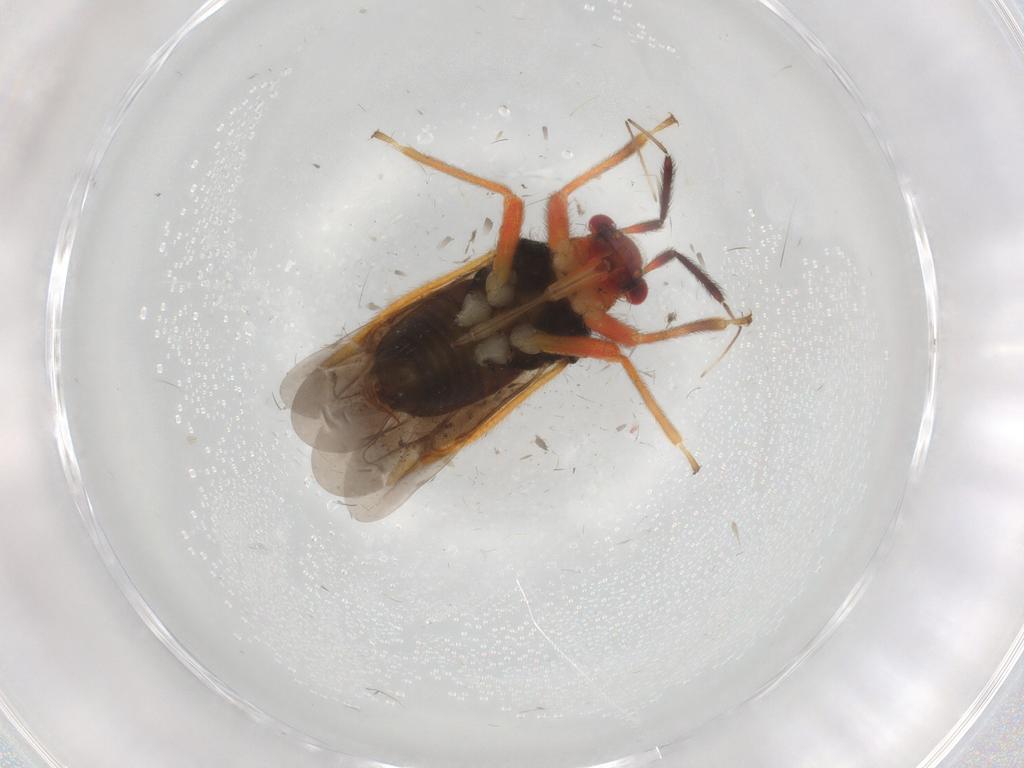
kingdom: Animalia
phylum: Arthropoda
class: Insecta
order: Hemiptera
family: Miridae
